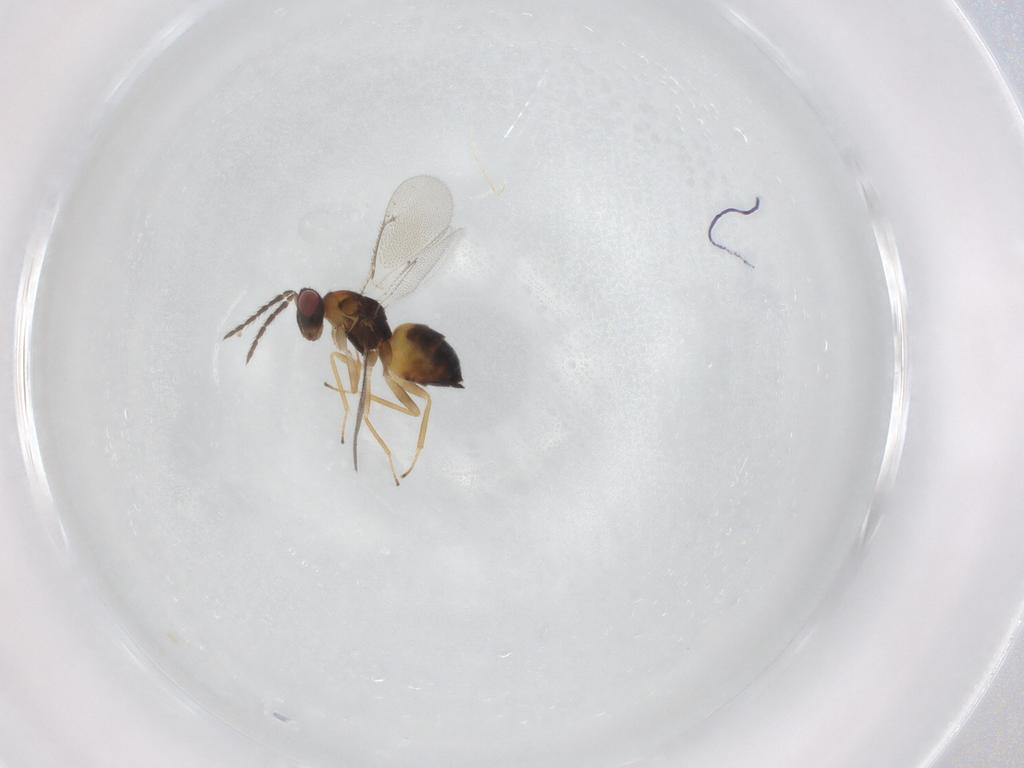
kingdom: Animalia
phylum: Arthropoda
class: Insecta
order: Hymenoptera
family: Eulophidae
